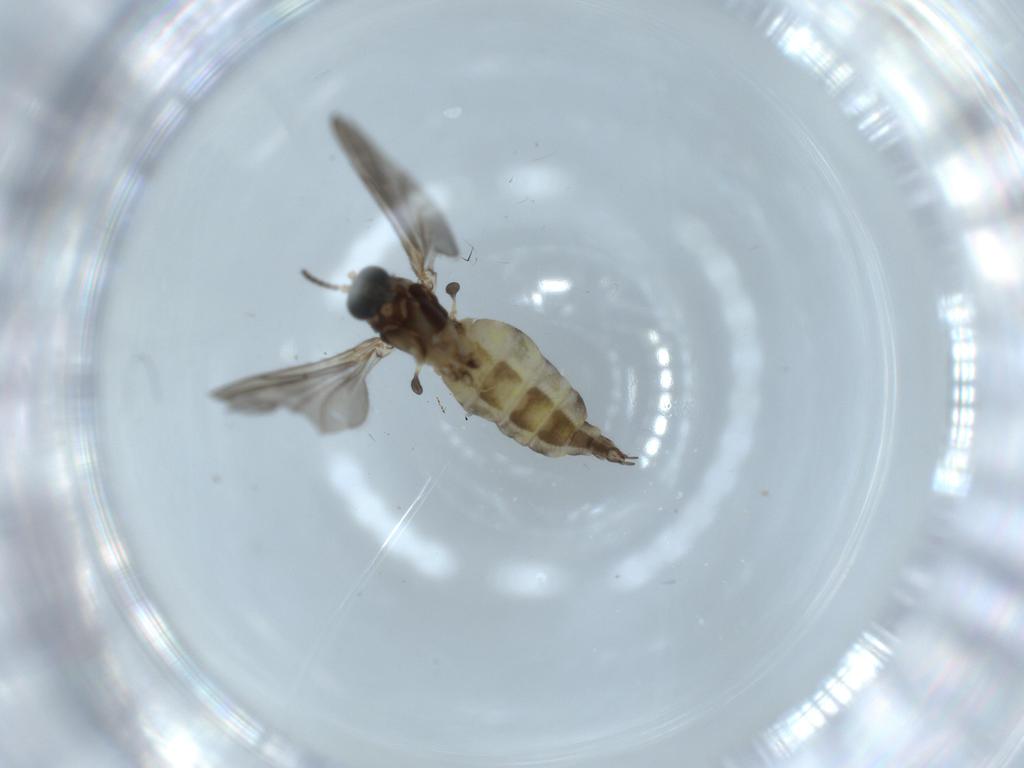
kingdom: Animalia
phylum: Arthropoda
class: Insecta
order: Diptera
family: Sciaridae
